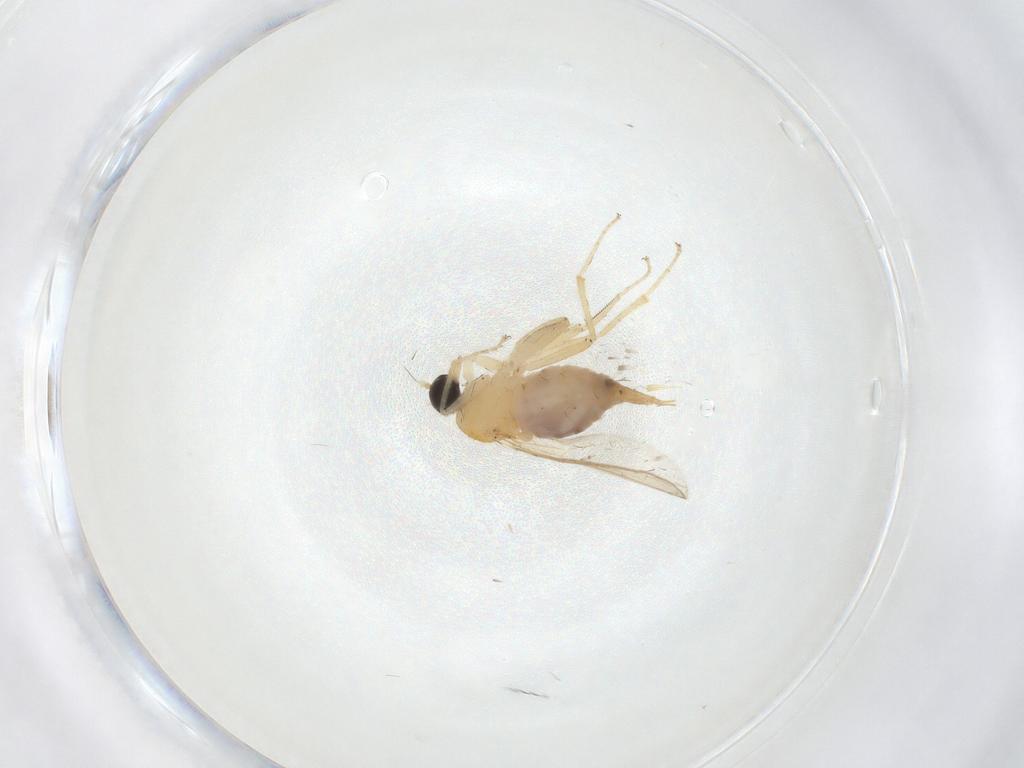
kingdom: Animalia
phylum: Arthropoda
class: Insecta
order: Diptera
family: Hybotidae
